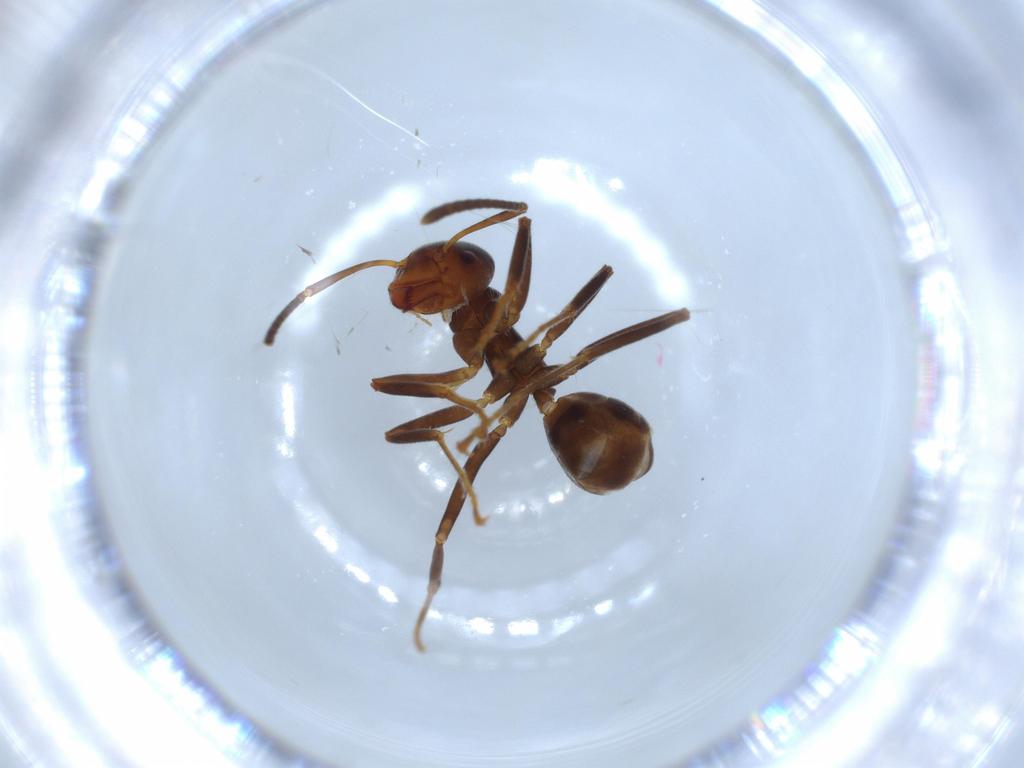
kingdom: Animalia
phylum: Arthropoda
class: Insecta
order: Hymenoptera
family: Formicidae
